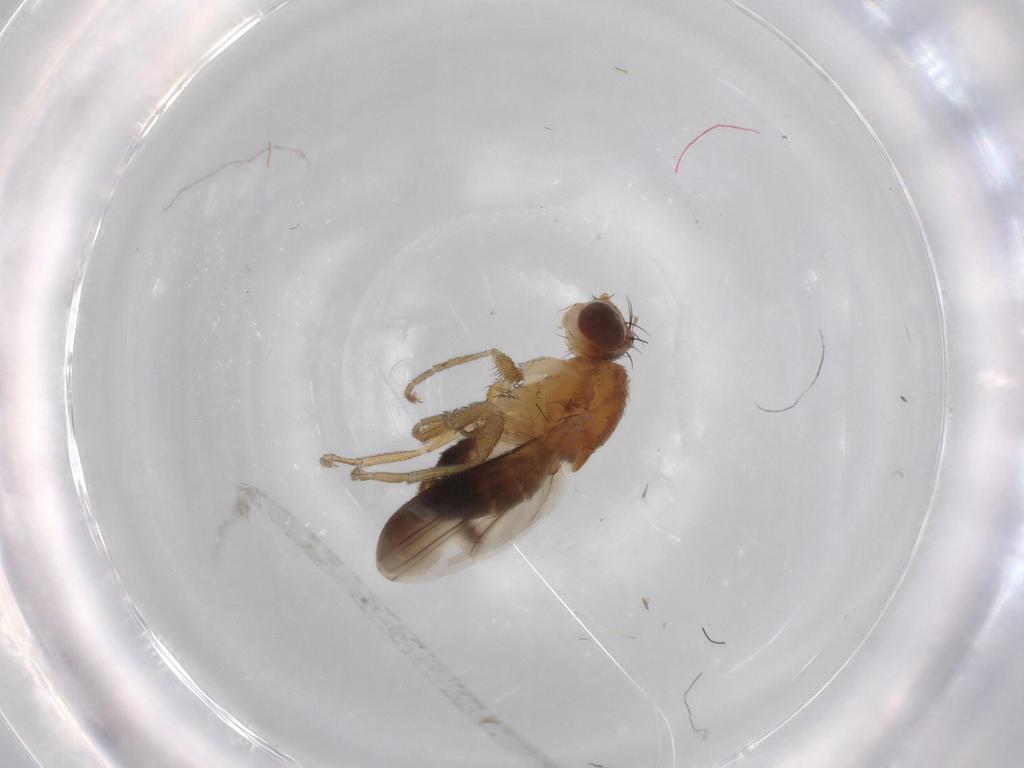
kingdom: Animalia
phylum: Arthropoda
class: Insecta
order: Diptera
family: Heleomyzidae
